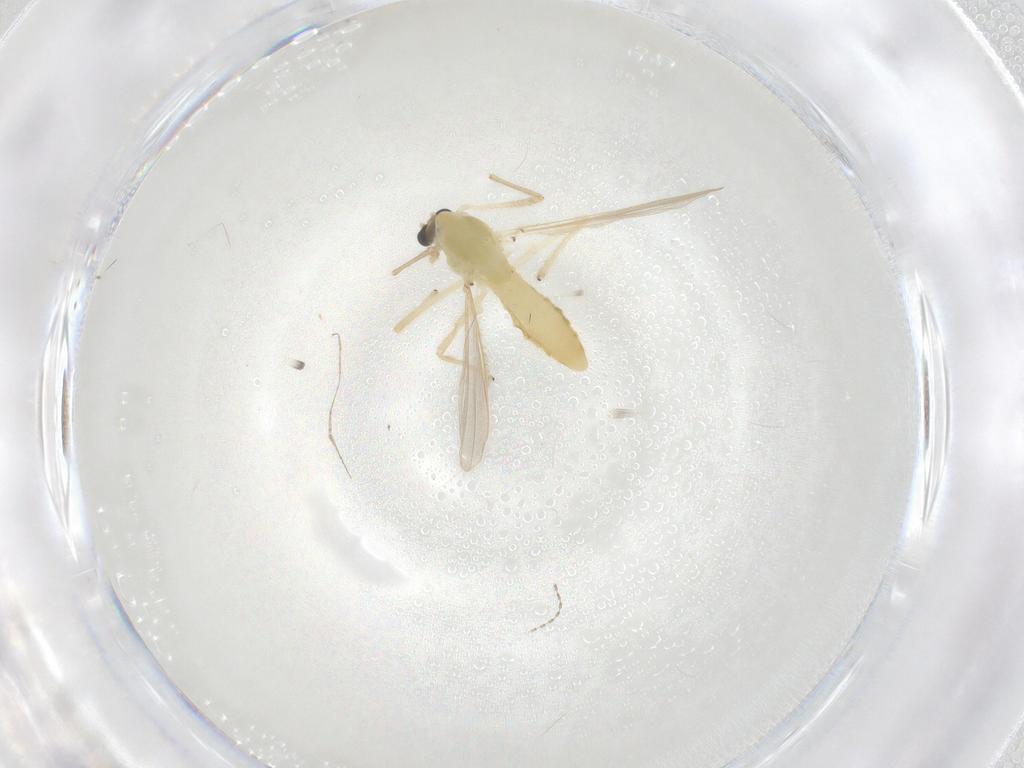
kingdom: Animalia
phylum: Arthropoda
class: Insecta
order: Diptera
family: Chironomidae
